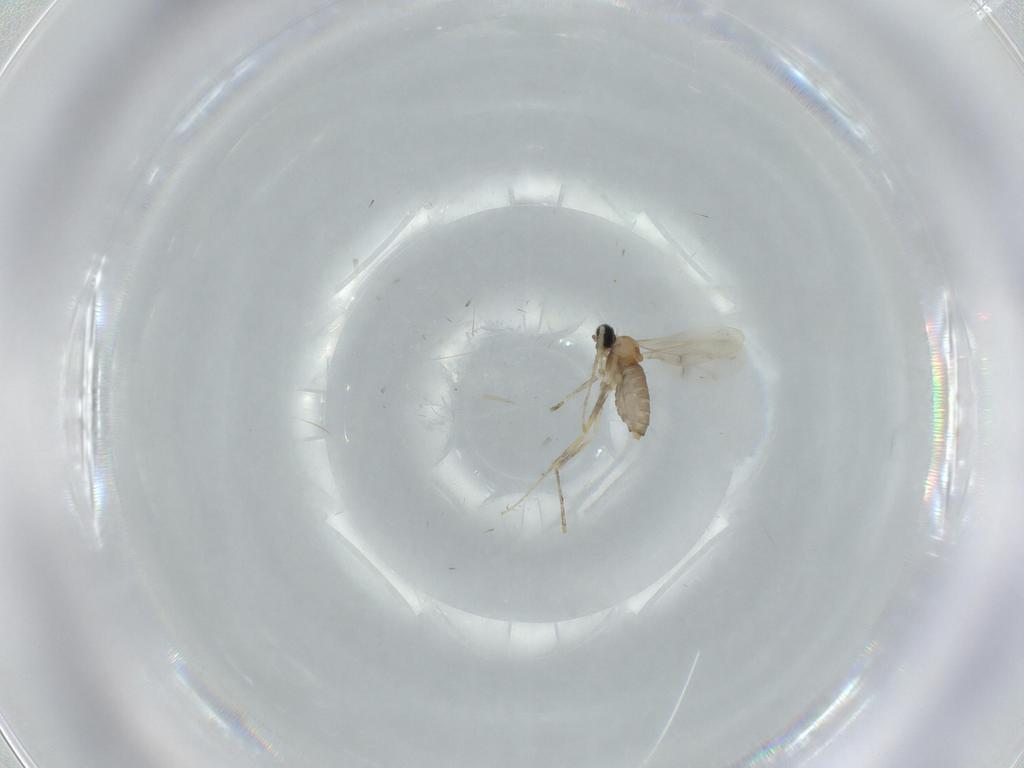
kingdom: Animalia
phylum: Arthropoda
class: Insecta
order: Diptera
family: Cecidomyiidae
